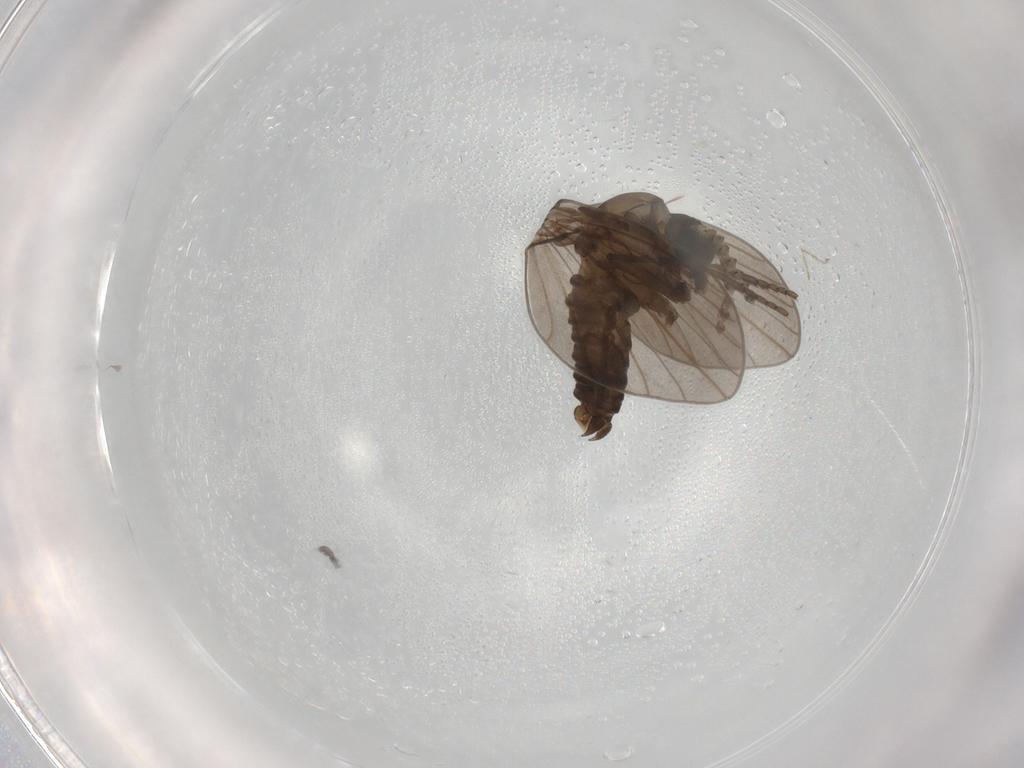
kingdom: Animalia
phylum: Arthropoda
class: Insecta
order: Diptera
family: Sciaridae
